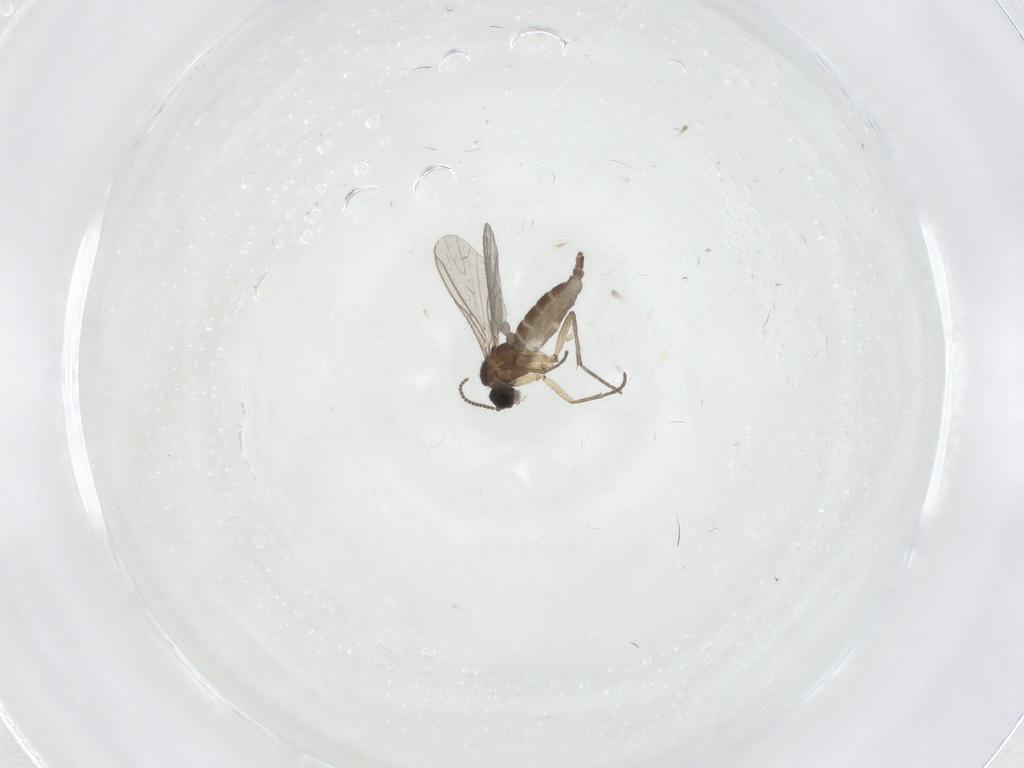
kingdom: Animalia
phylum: Arthropoda
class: Insecta
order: Diptera
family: Sciaridae
